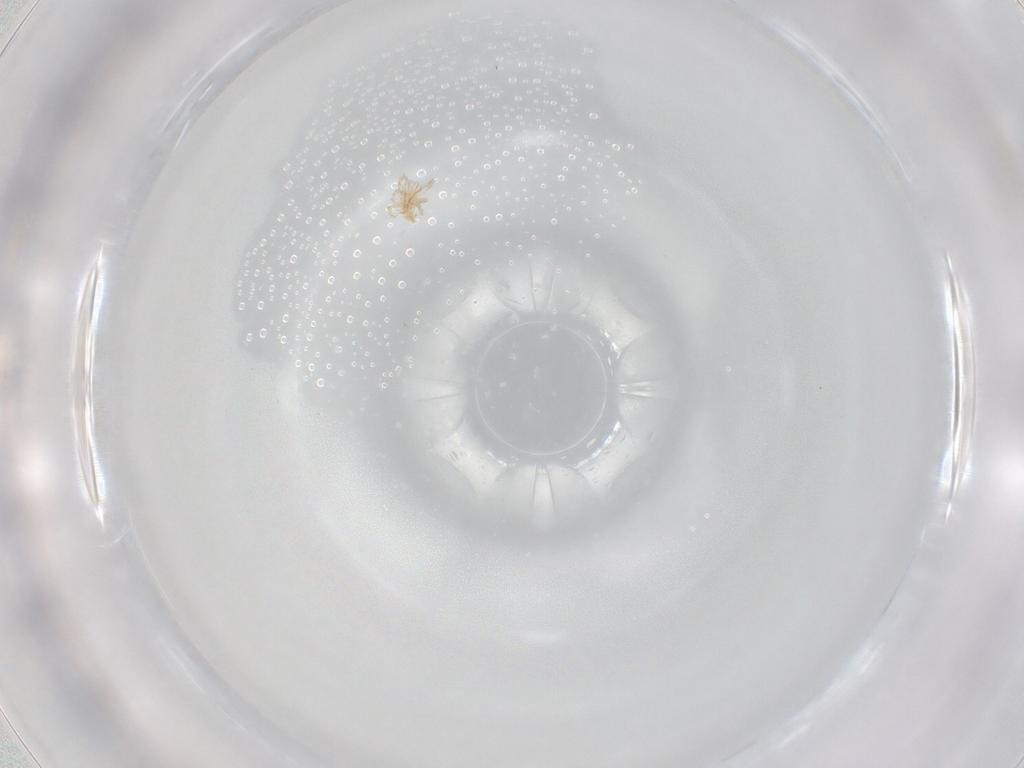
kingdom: Animalia
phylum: Arthropoda
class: Arachnida
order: Trombidiformes
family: Erythraeidae
